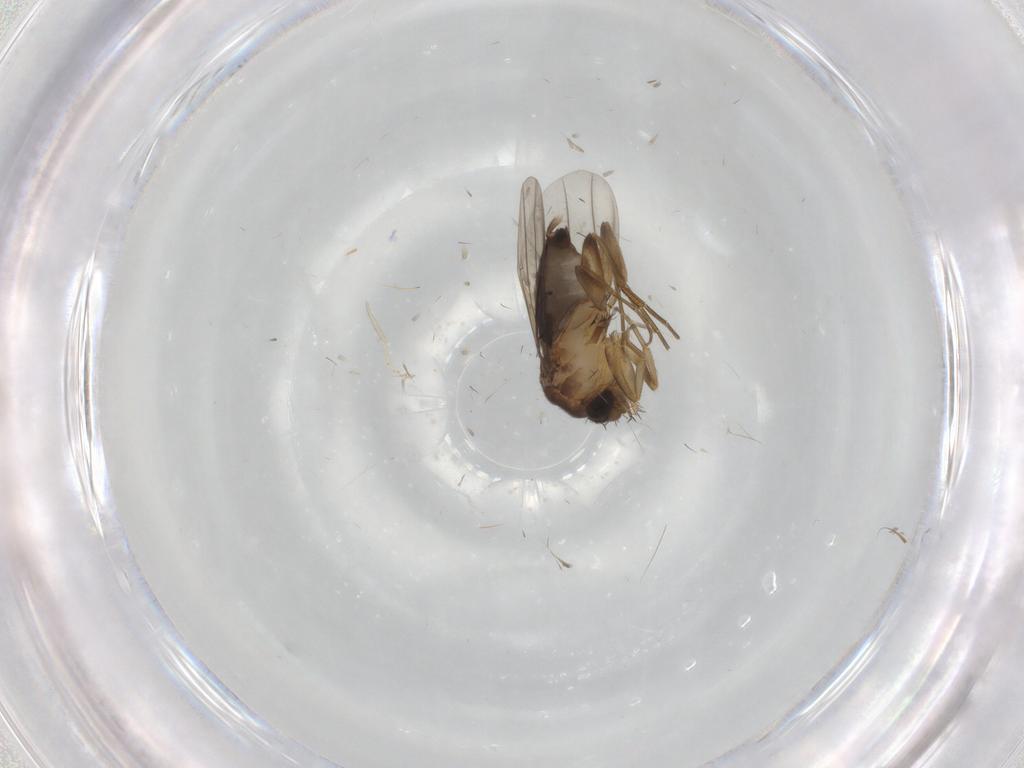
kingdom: Animalia
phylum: Arthropoda
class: Insecta
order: Diptera
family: Phoridae
